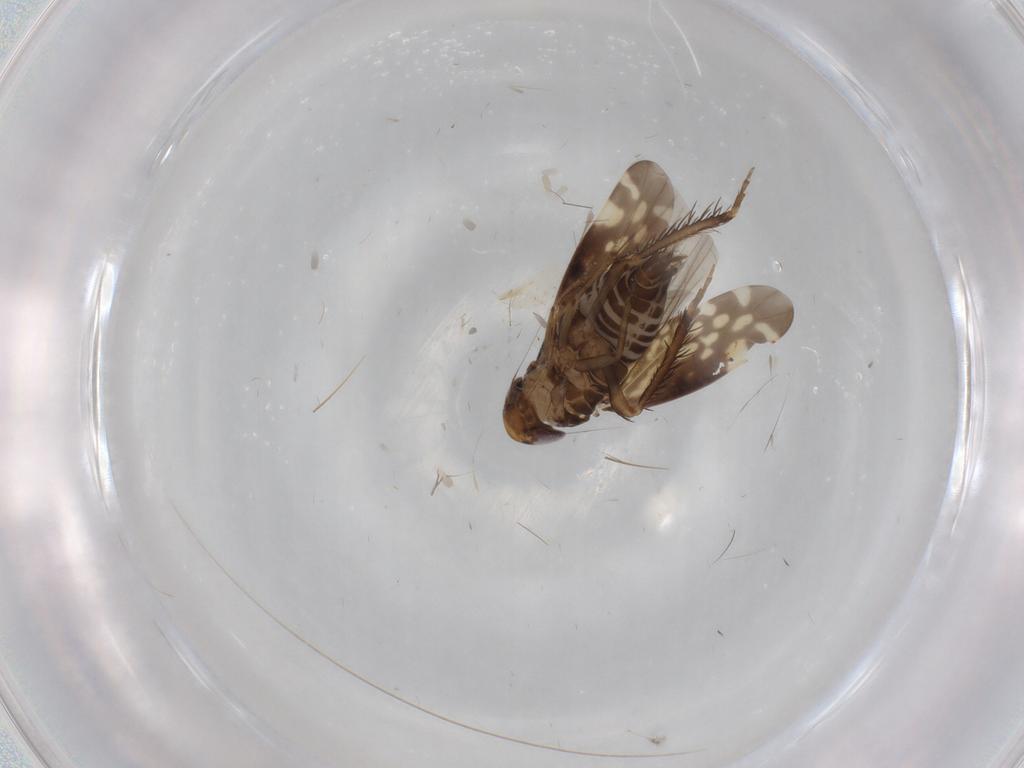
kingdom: Animalia
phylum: Arthropoda
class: Insecta
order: Hemiptera
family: Cicadellidae
